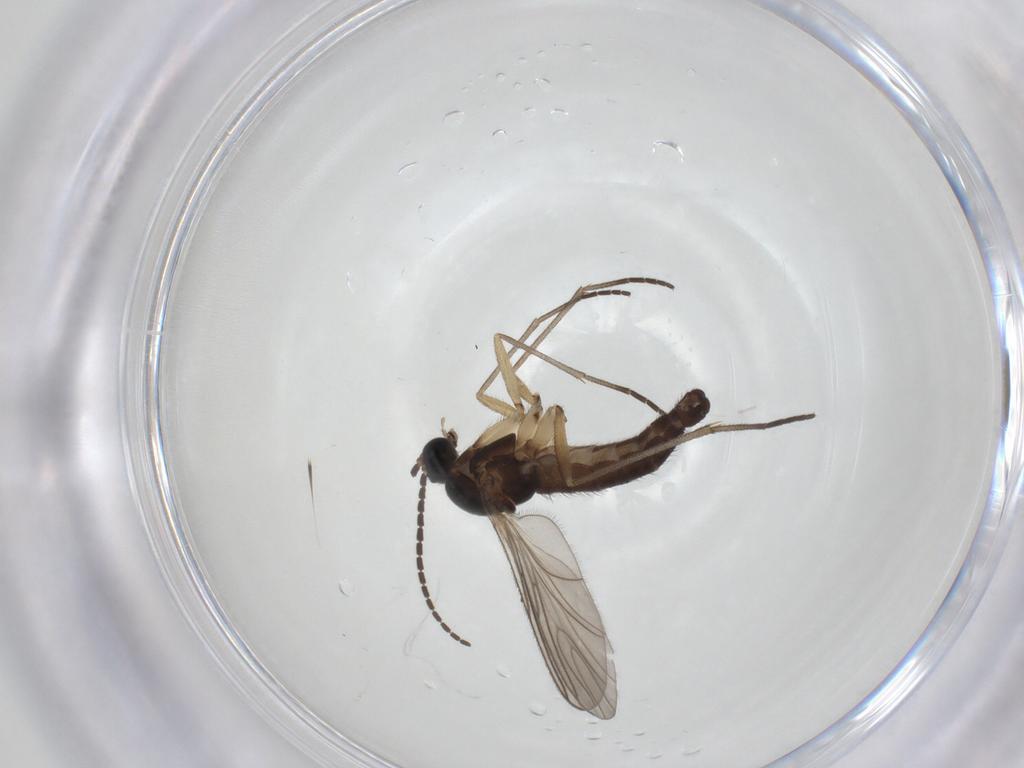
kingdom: Animalia
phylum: Arthropoda
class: Insecta
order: Diptera
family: Sciaridae
